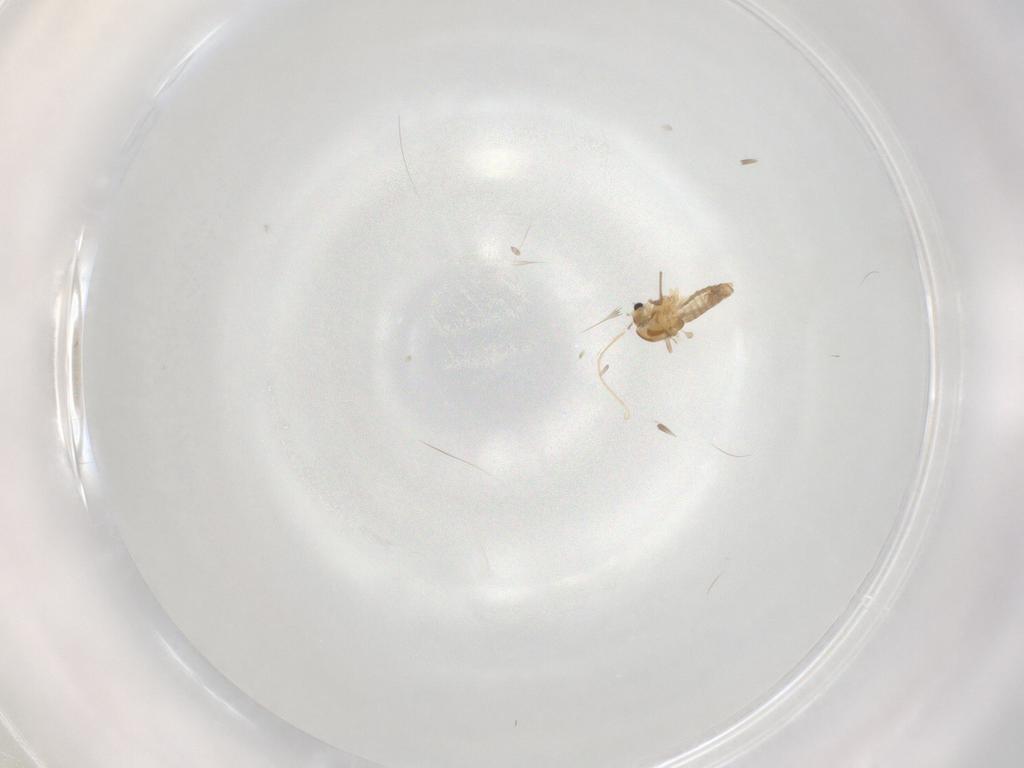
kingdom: Animalia
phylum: Arthropoda
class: Insecta
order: Diptera
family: Chironomidae
